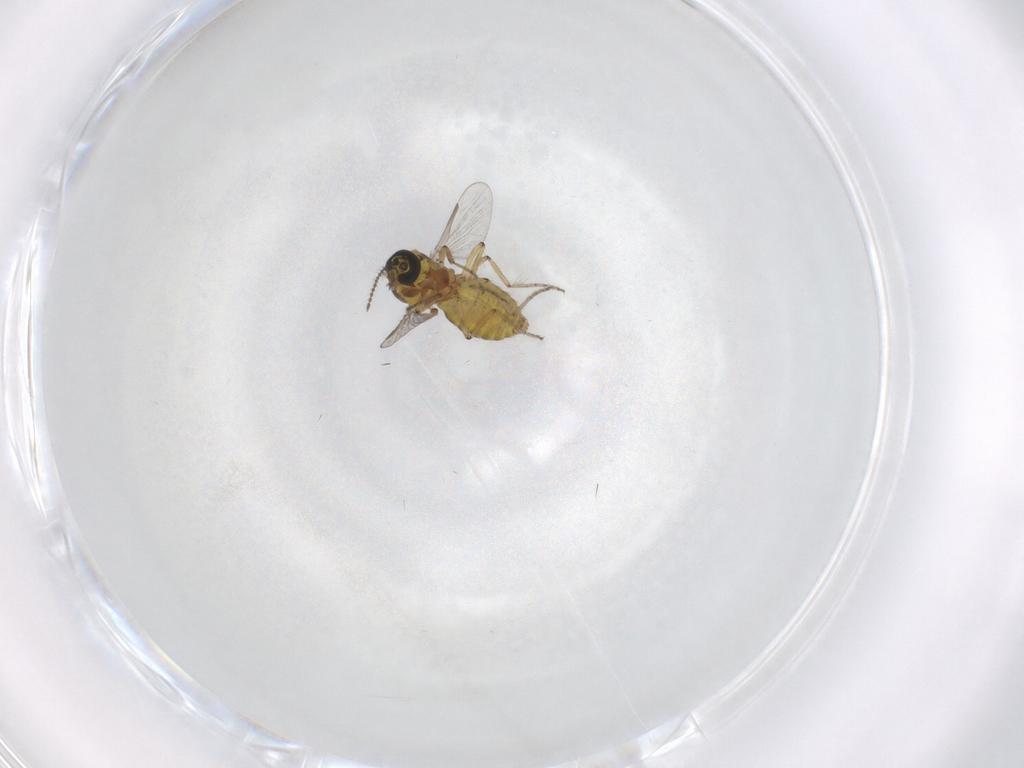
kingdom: Animalia
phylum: Arthropoda
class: Insecta
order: Diptera
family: Ceratopogonidae
